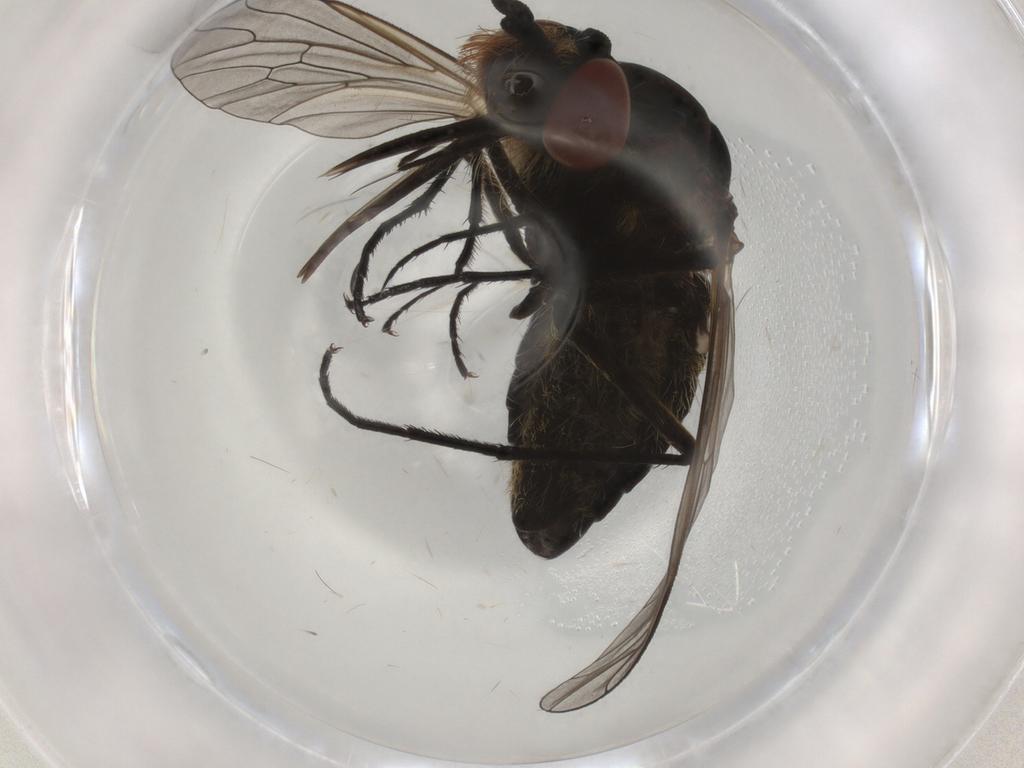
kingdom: Animalia
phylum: Arthropoda
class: Insecta
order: Diptera
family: Bombyliidae
